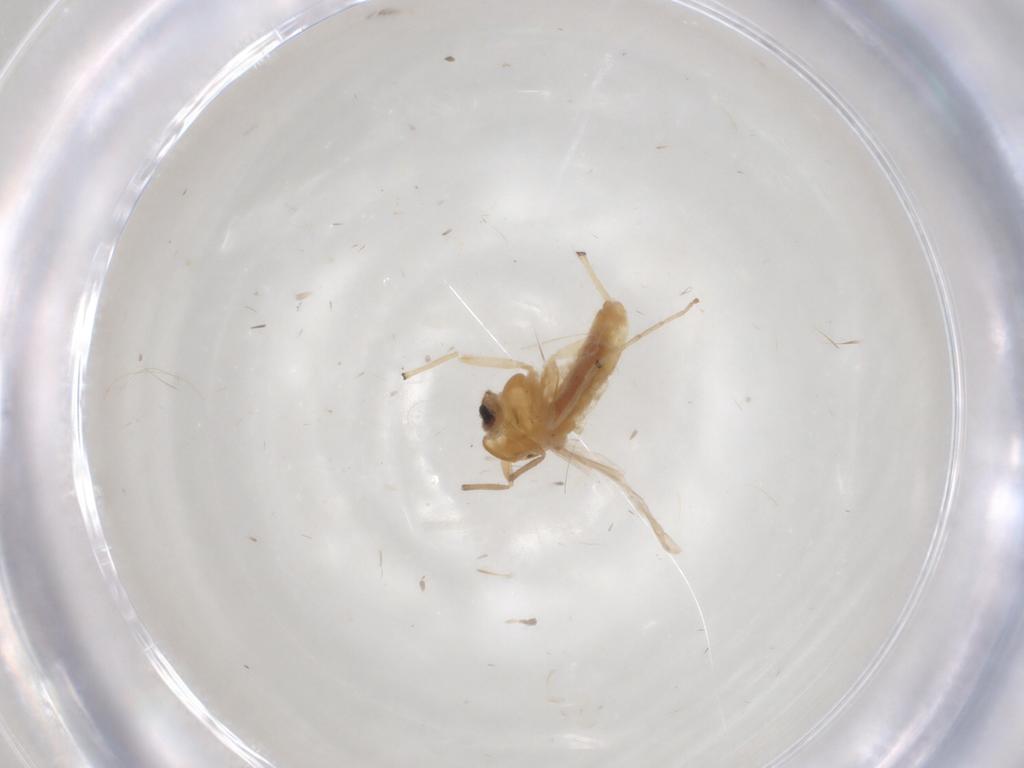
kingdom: Animalia
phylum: Arthropoda
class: Insecta
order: Diptera
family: Chironomidae
